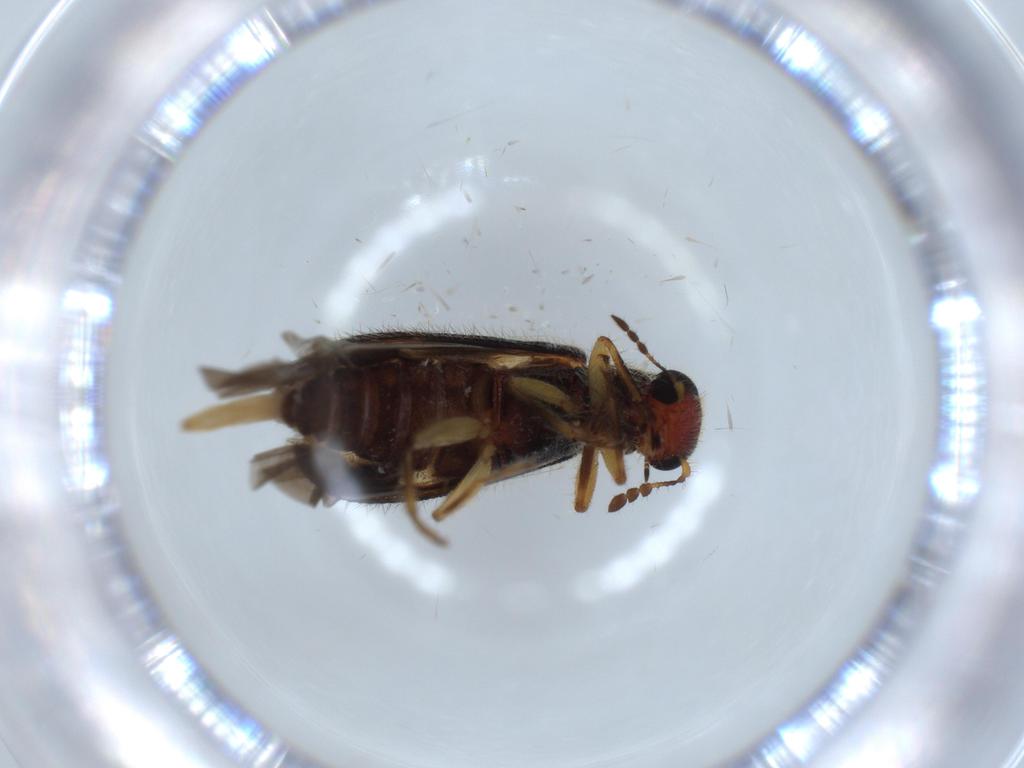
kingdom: Animalia
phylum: Arthropoda
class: Insecta
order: Coleoptera
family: Cleridae
